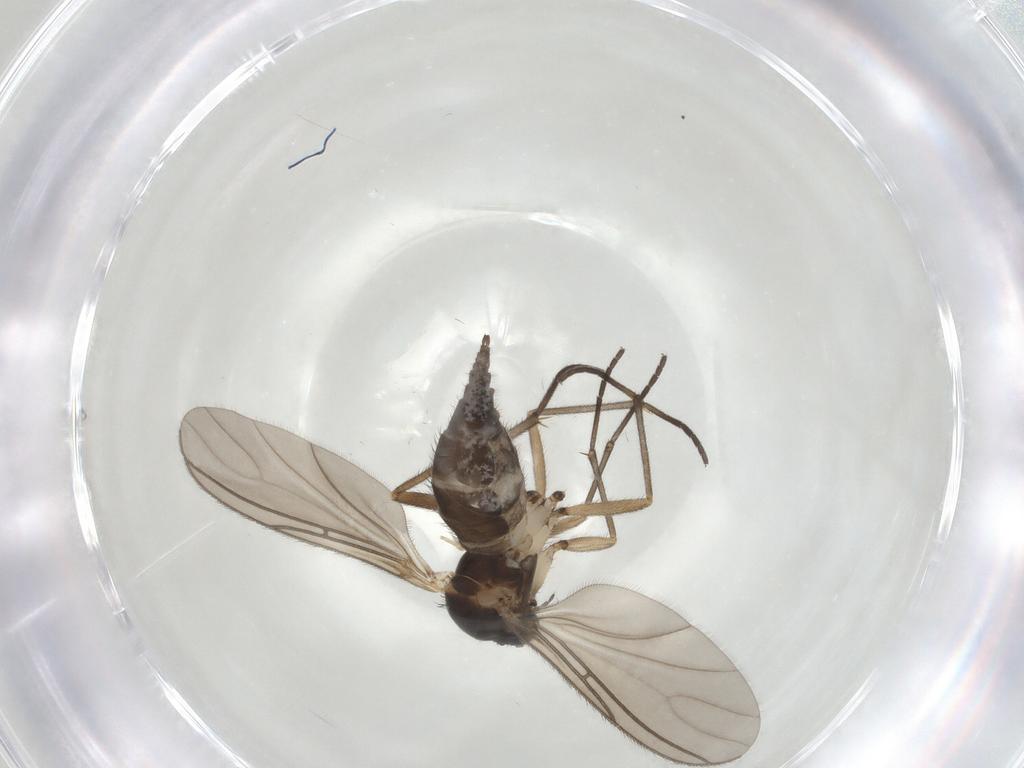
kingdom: Animalia
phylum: Arthropoda
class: Insecta
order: Diptera
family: Sciaridae
